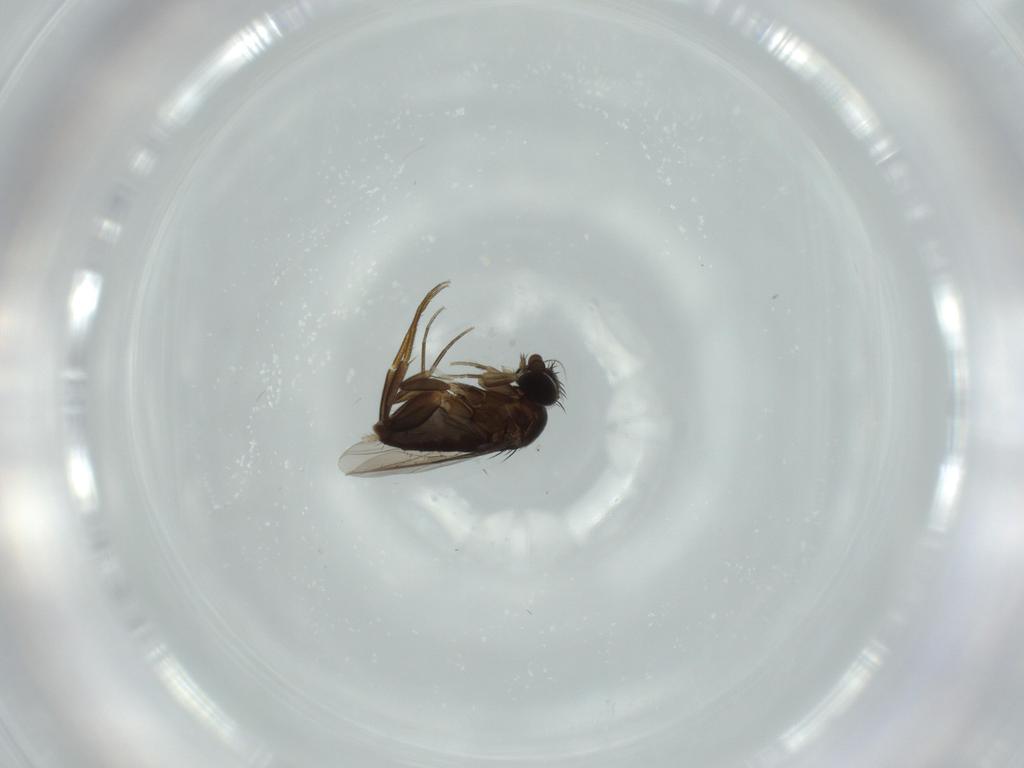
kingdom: Animalia
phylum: Arthropoda
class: Insecta
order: Diptera
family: Phoridae
